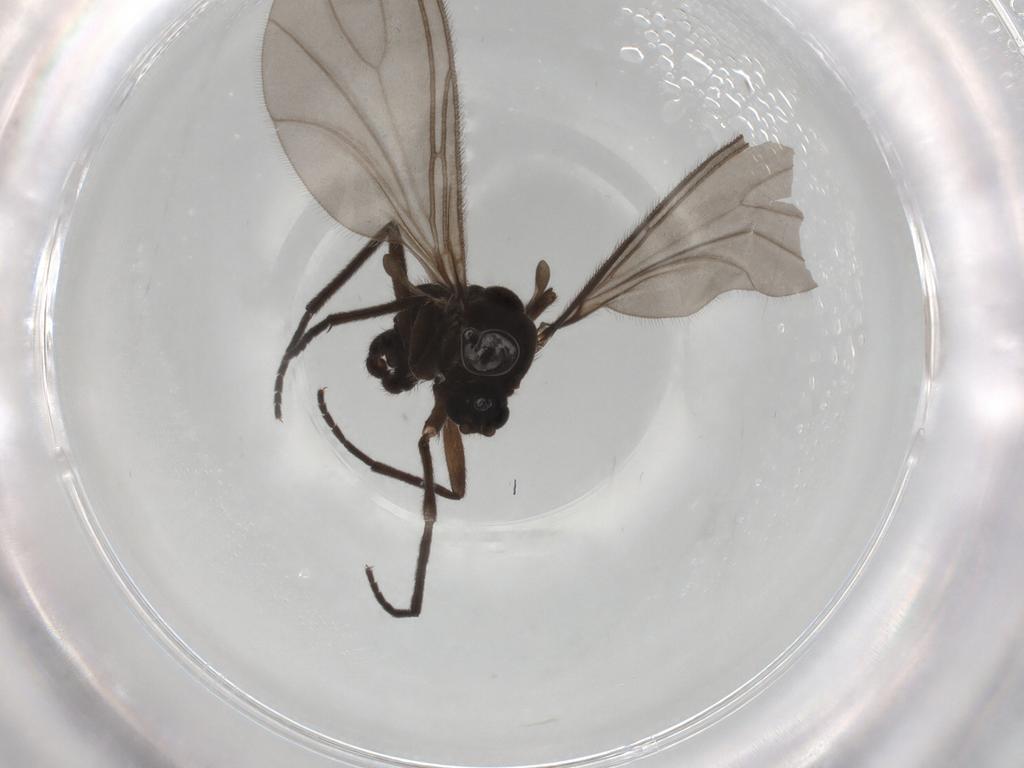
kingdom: Animalia
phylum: Arthropoda
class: Insecta
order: Diptera
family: Sciaridae
